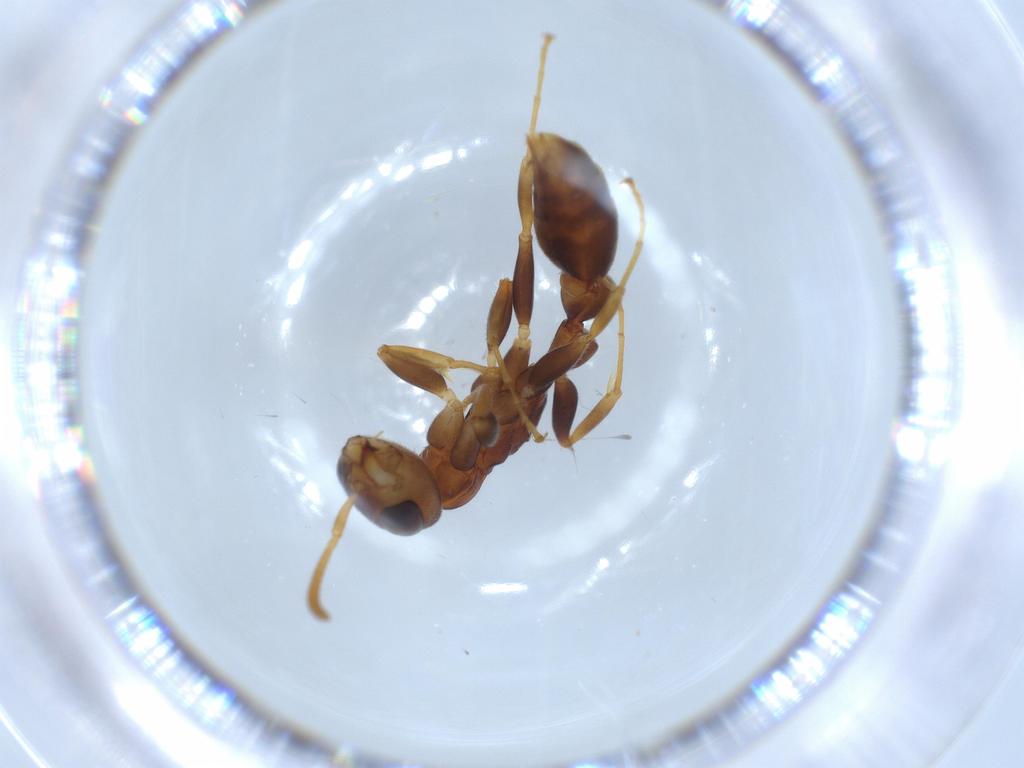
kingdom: Animalia
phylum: Arthropoda
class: Insecta
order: Hymenoptera
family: Formicidae
